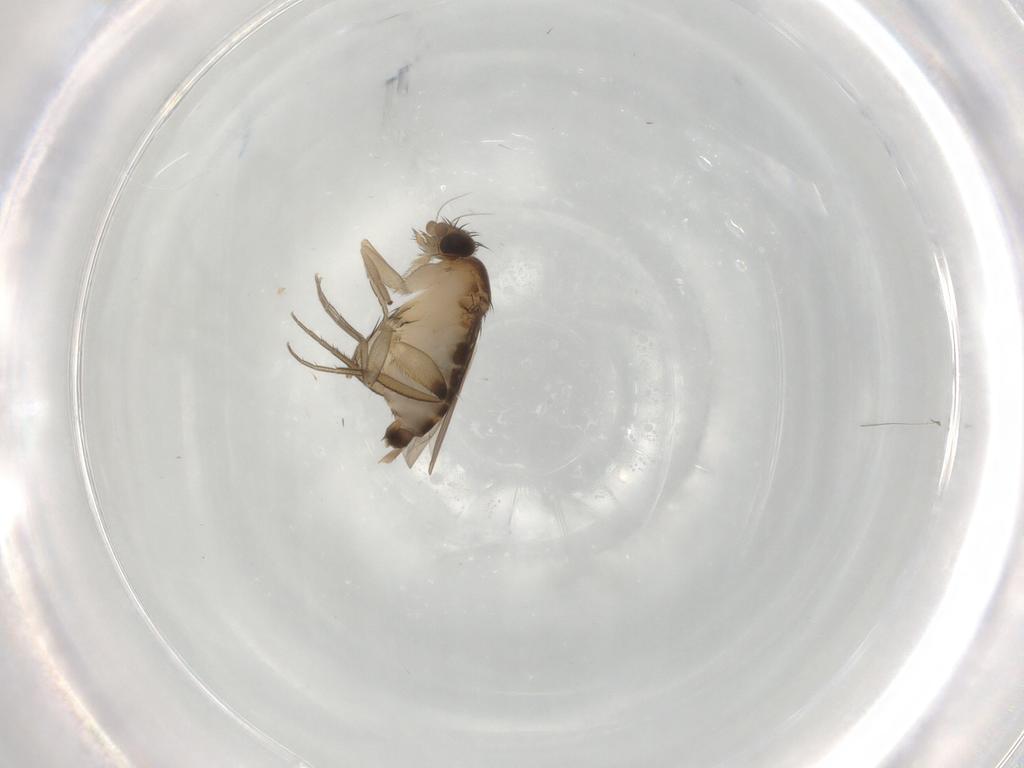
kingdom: Animalia
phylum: Arthropoda
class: Insecta
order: Diptera
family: Phoridae
